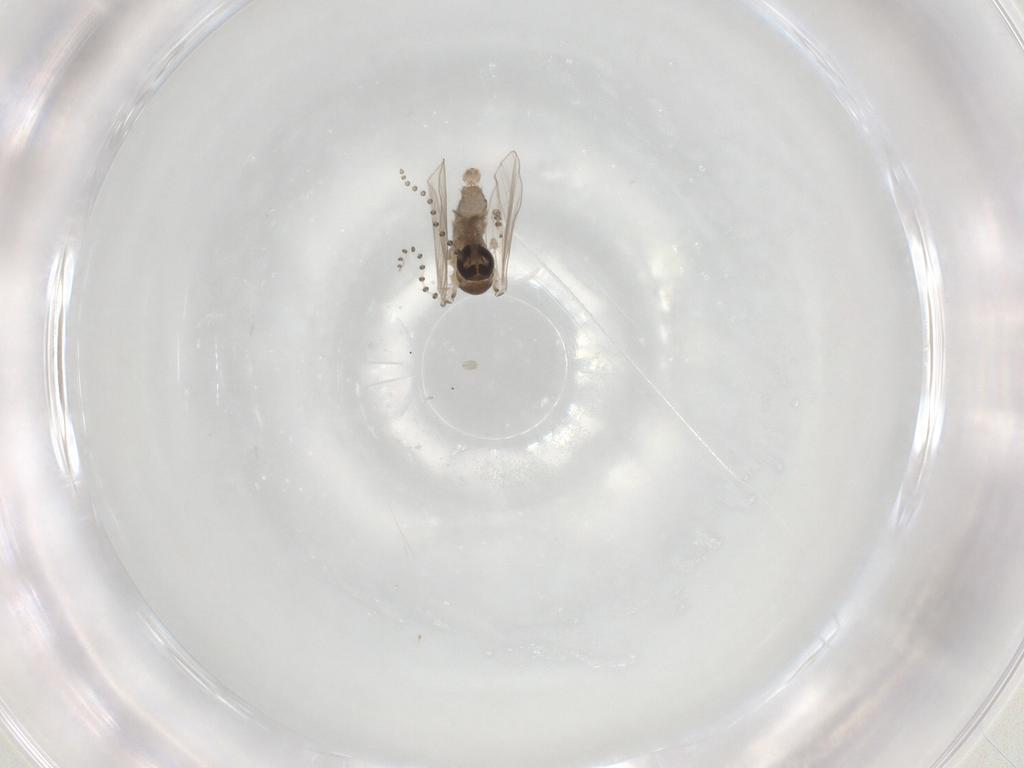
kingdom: Animalia
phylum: Arthropoda
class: Insecta
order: Diptera
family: Psychodidae
